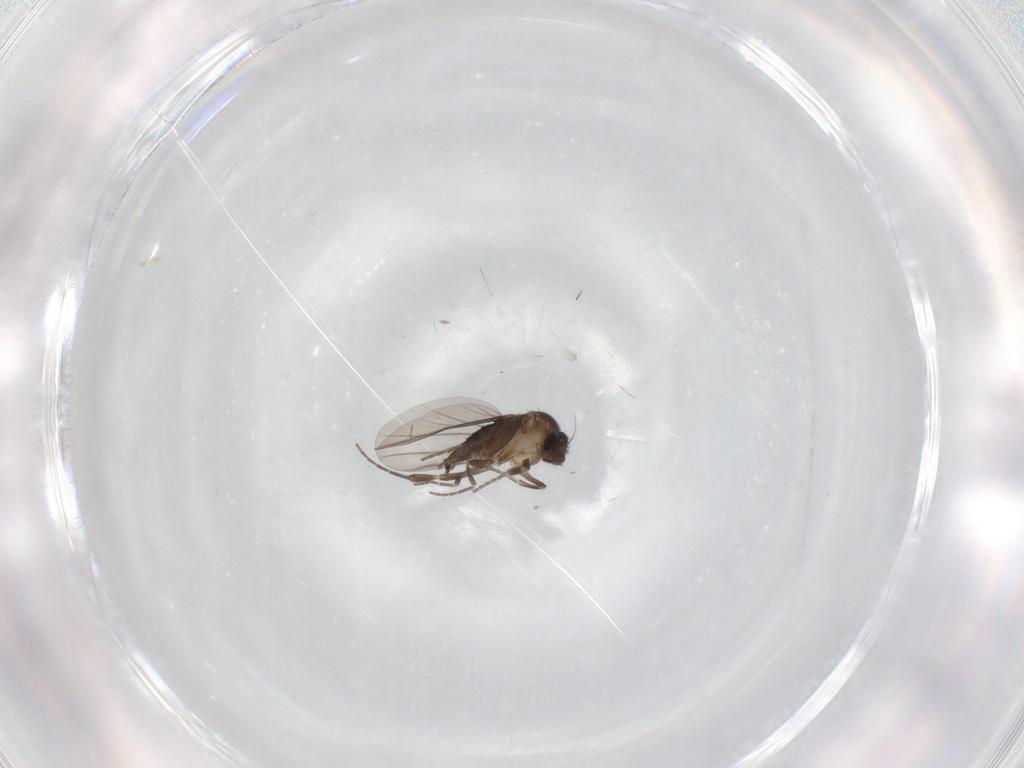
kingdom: Animalia
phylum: Arthropoda
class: Insecta
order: Diptera
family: Phoridae
